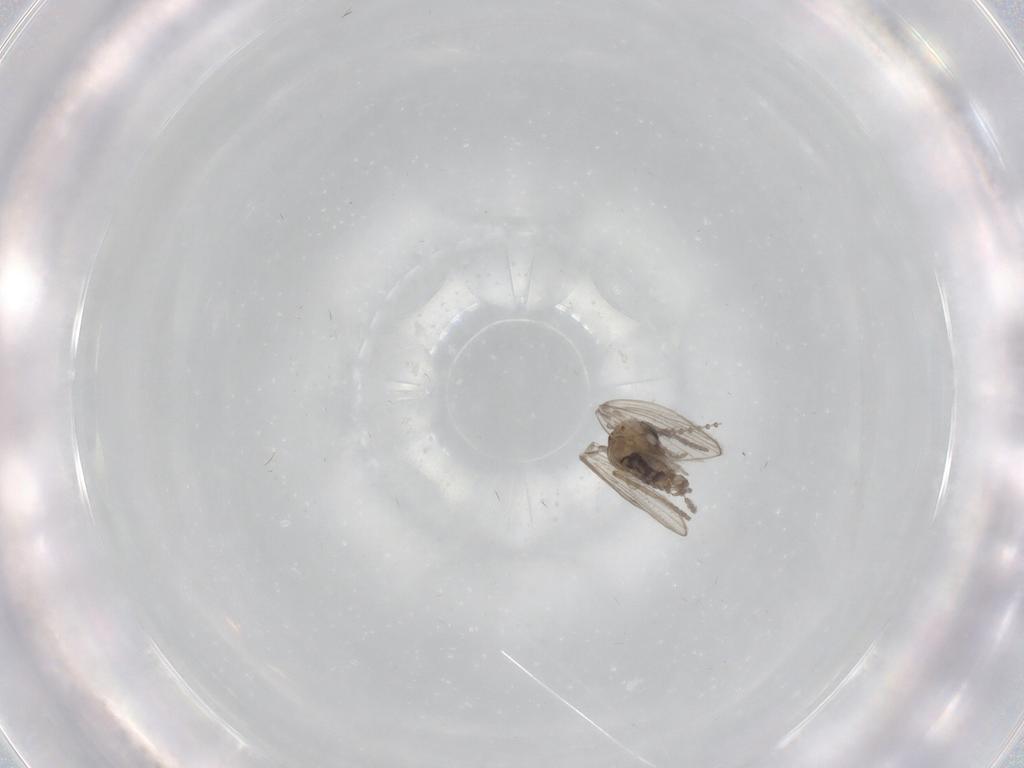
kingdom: Animalia
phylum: Arthropoda
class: Insecta
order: Diptera
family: Psychodidae
